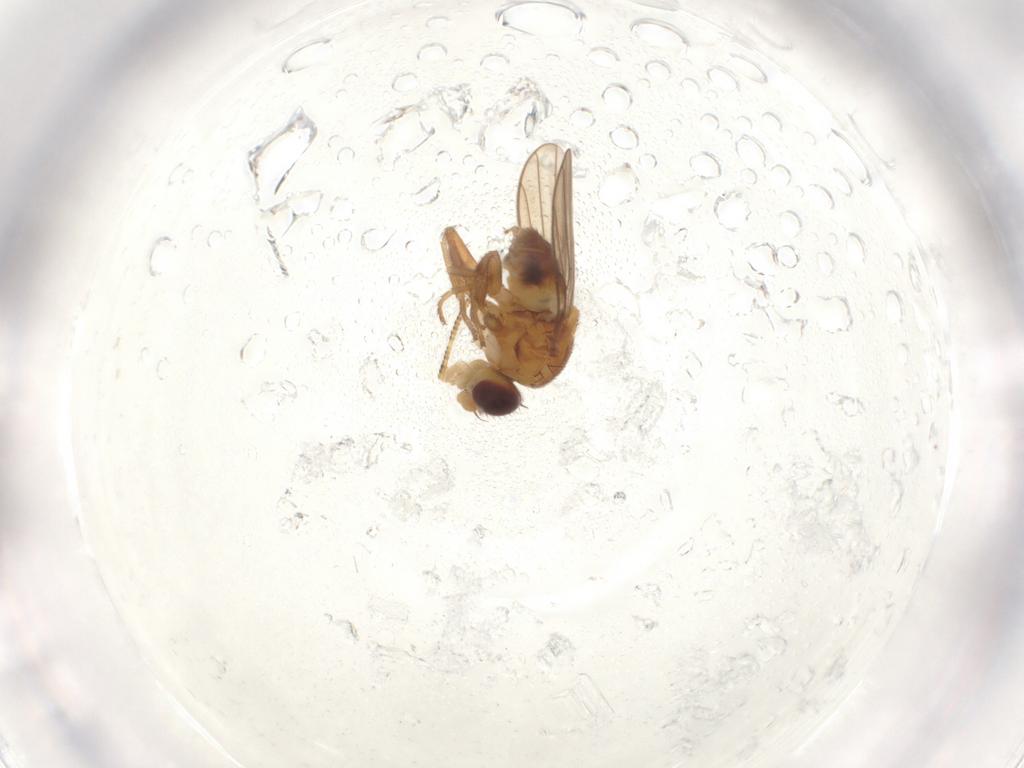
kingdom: Animalia
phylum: Arthropoda
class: Insecta
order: Diptera
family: Chloropidae
